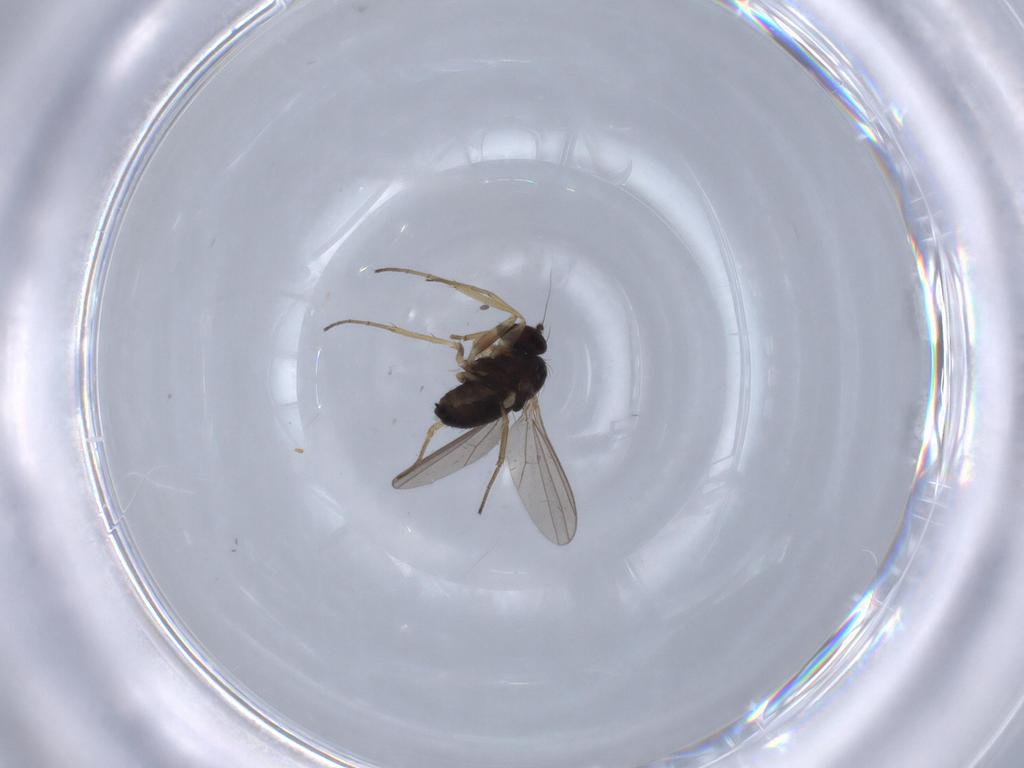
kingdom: Animalia
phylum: Arthropoda
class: Insecta
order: Diptera
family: Dolichopodidae
